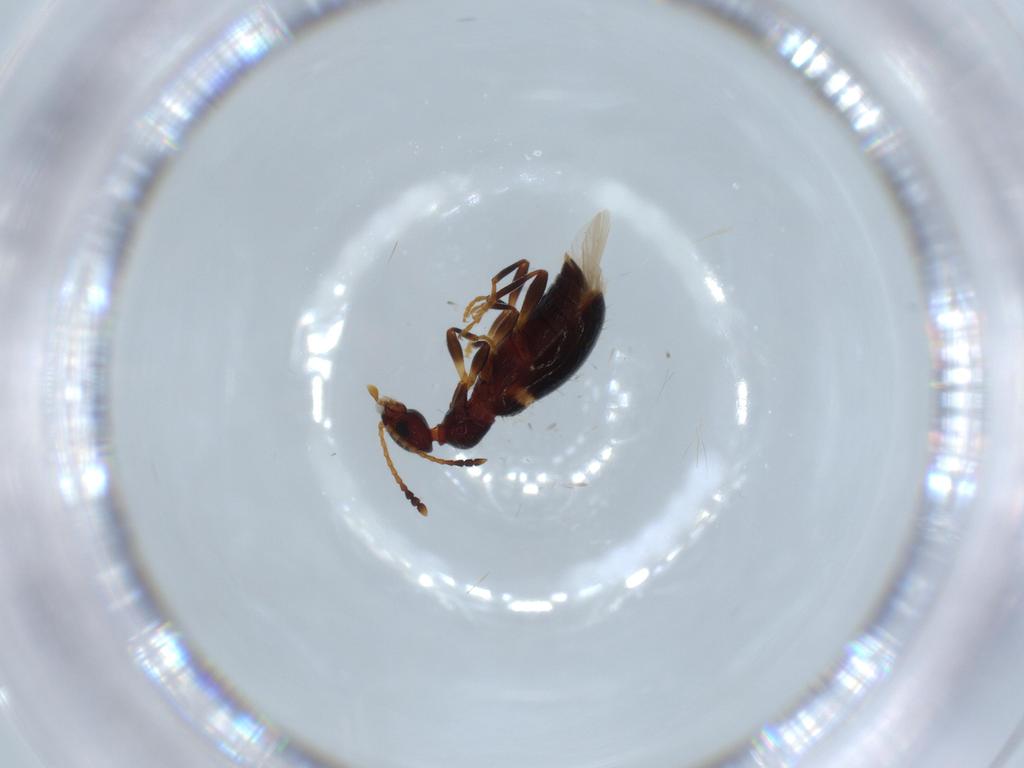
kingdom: Animalia
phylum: Arthropoda
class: Insecta
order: Coleoptera
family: Anthicidae
